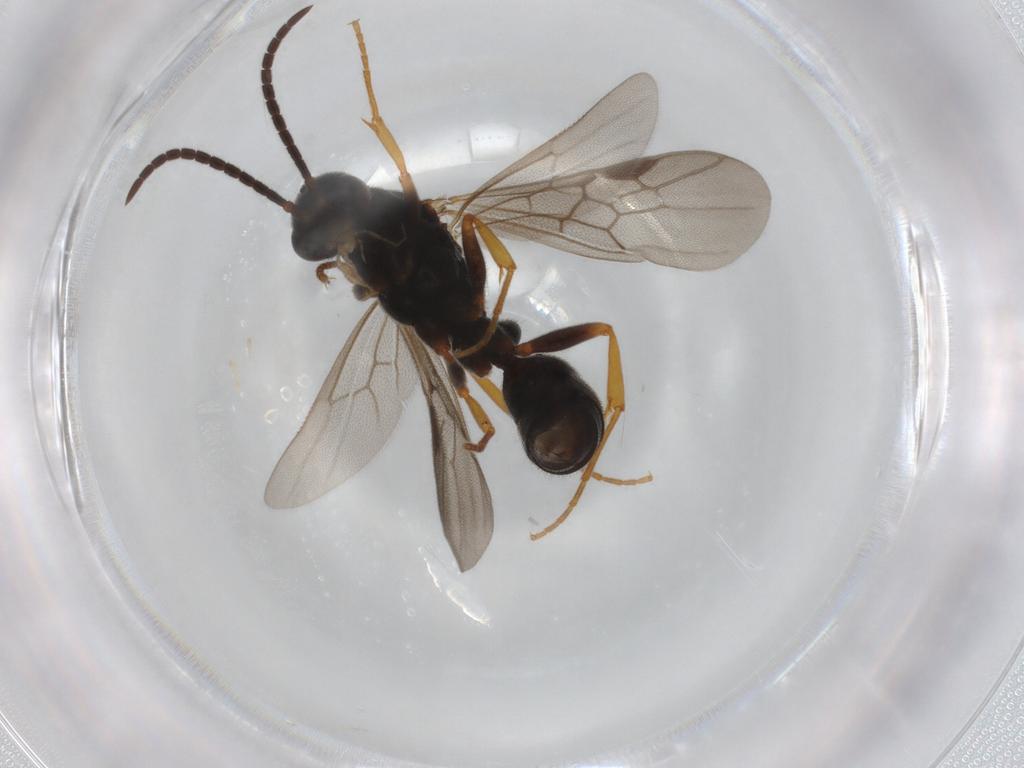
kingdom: Animalia
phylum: Arthropoda
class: Insecta
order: Hymenoptera
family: Formicidae
